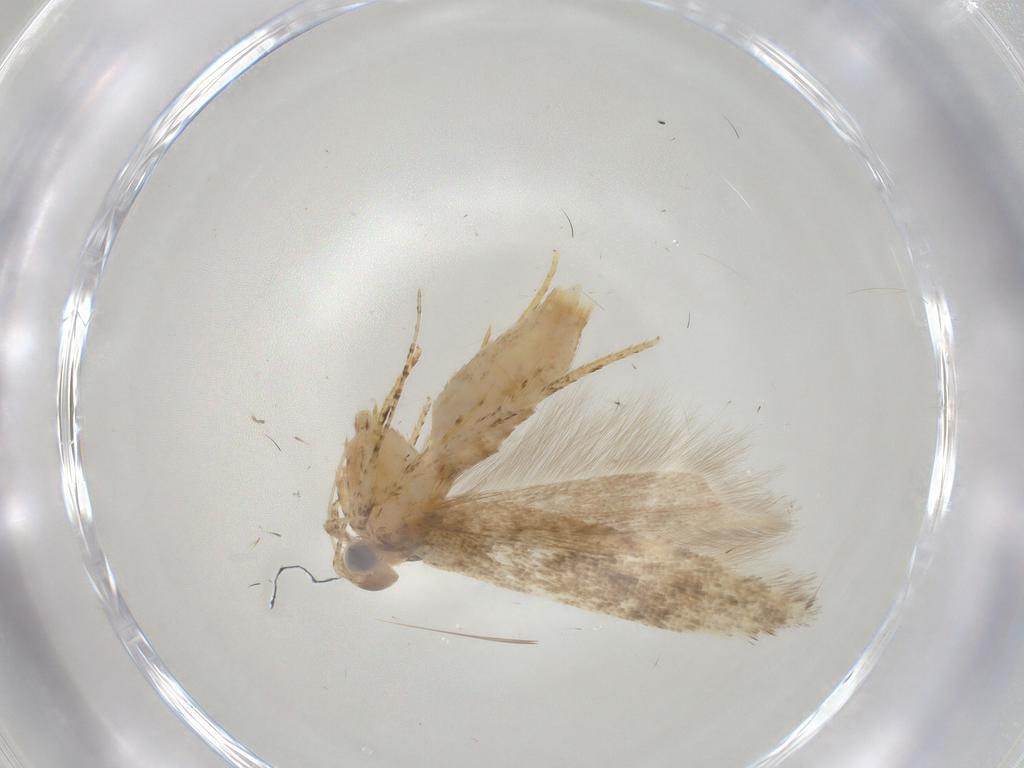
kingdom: Animalia
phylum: Arthropoda
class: Insecta
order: Lepidoptera
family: Gelechiidae
